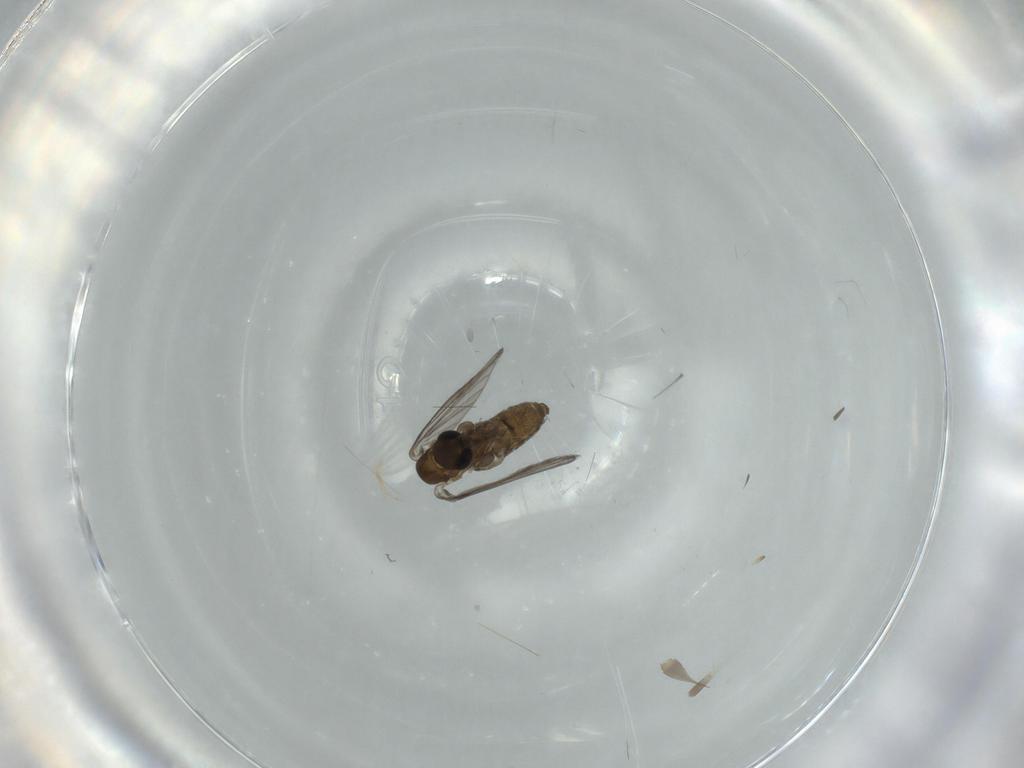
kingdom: Animalia
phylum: Arthropoda
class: Insecta
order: Diptera
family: Cecidomyiidae
